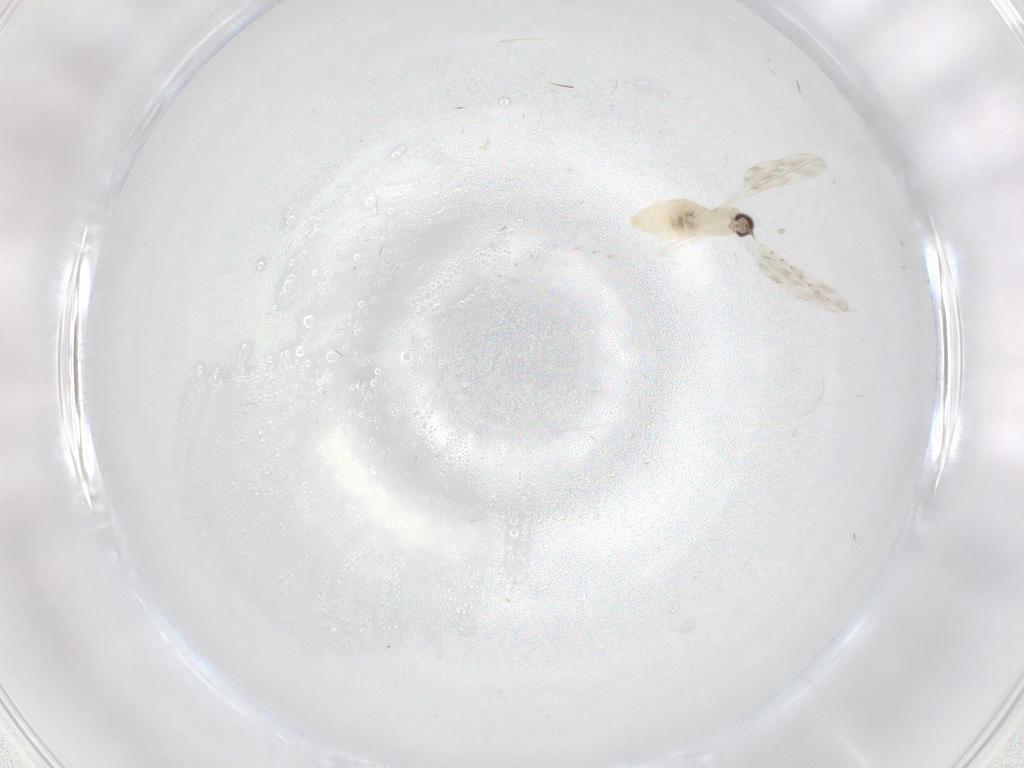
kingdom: Animalia
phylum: Arthropoda
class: Insecta
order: Diptera
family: Cecidomyiidae
